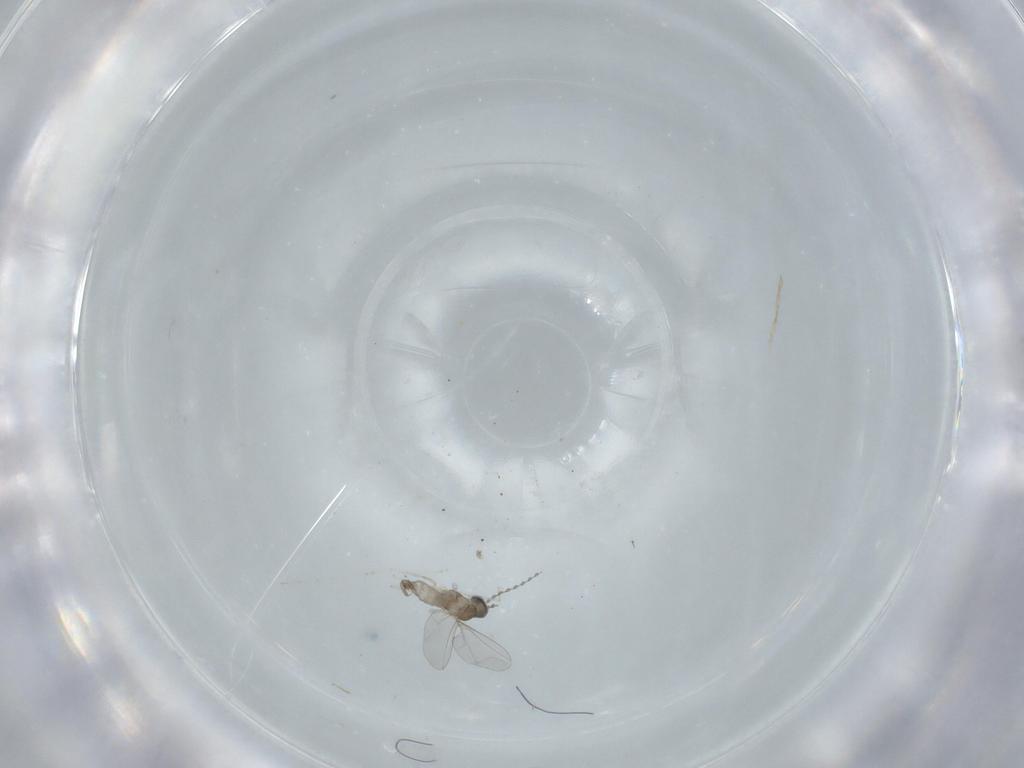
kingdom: Animalia
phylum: Arthropoda
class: Insecta
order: Diptera
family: Cecidomyiidae
